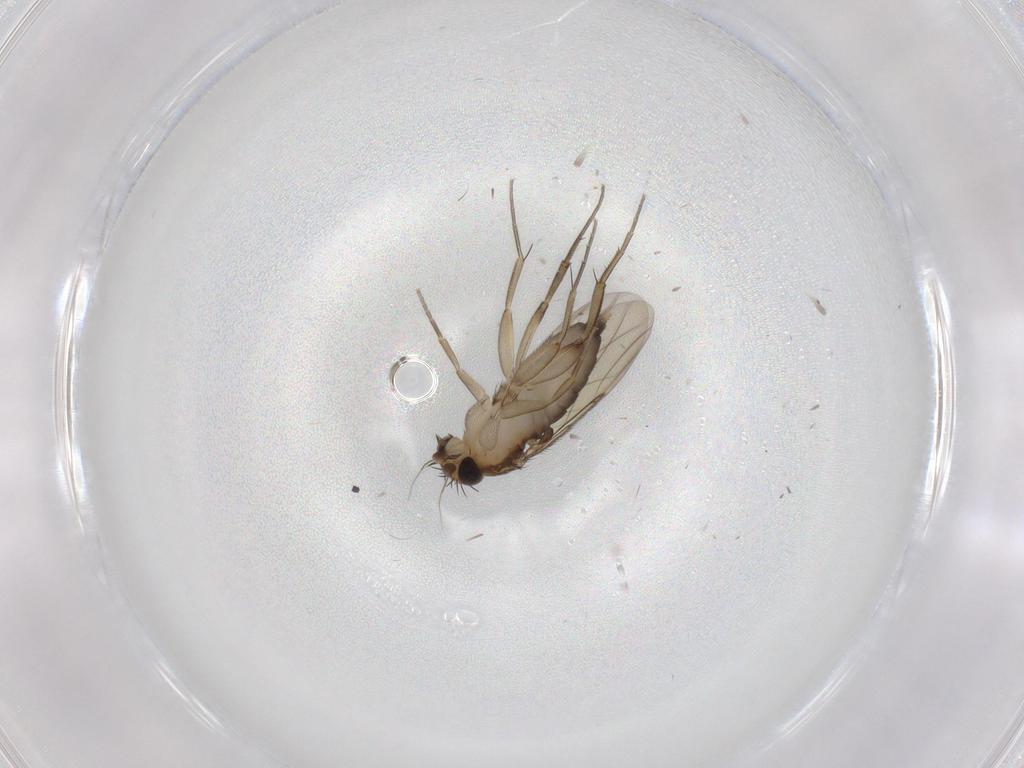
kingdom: Animalia
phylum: Arthropoda
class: Insecta
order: Diptera
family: Phoridae
